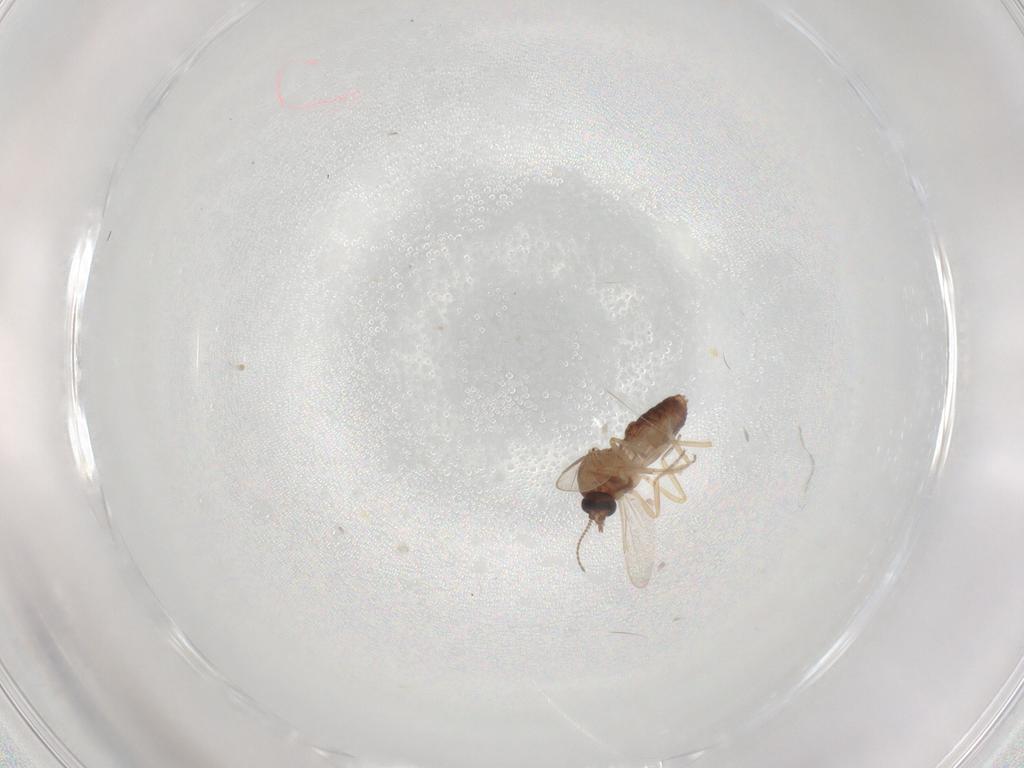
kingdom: Animalia
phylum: Arthropoda
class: Insecta
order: Diptera
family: Ceratopogonidae
